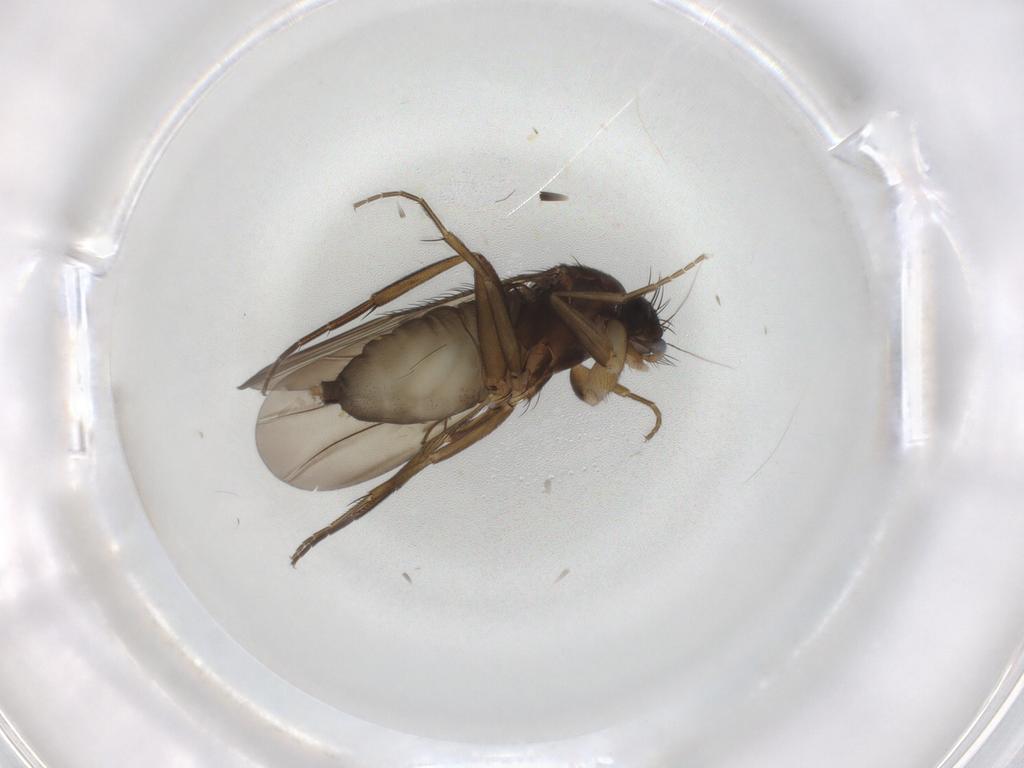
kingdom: Animalia
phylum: Arthropoda
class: Insecta
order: Diptera
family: Phoridae
